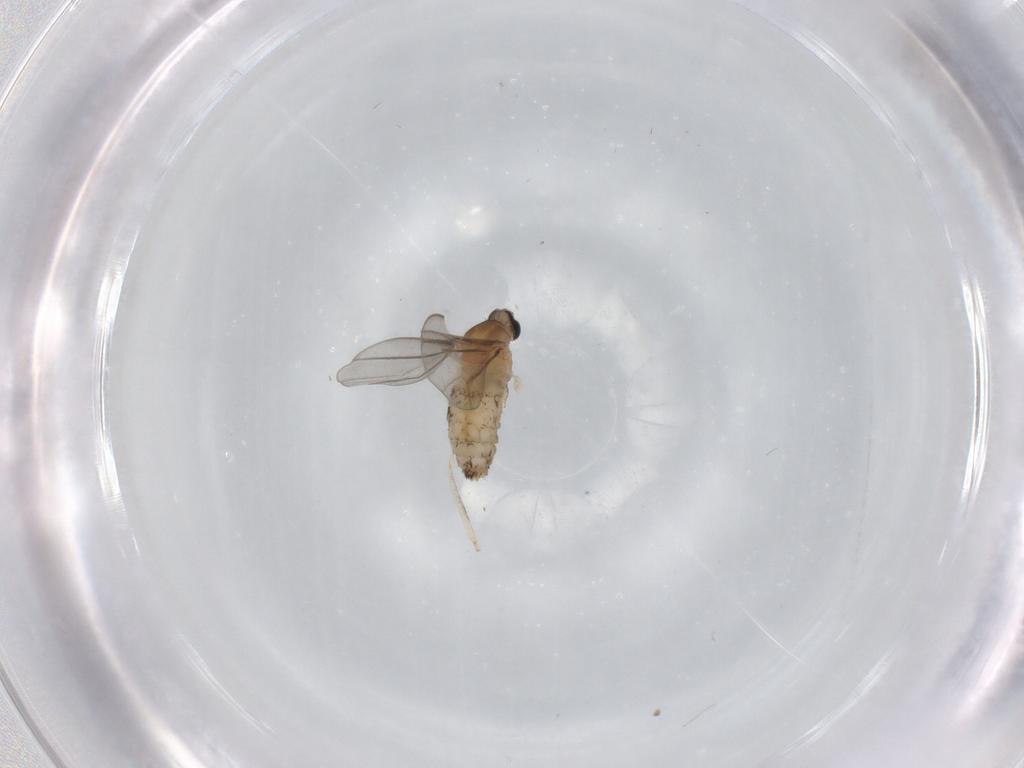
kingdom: Animalia
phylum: Arthropoda
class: Insecta
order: Diptera
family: Cecidomyiidae
